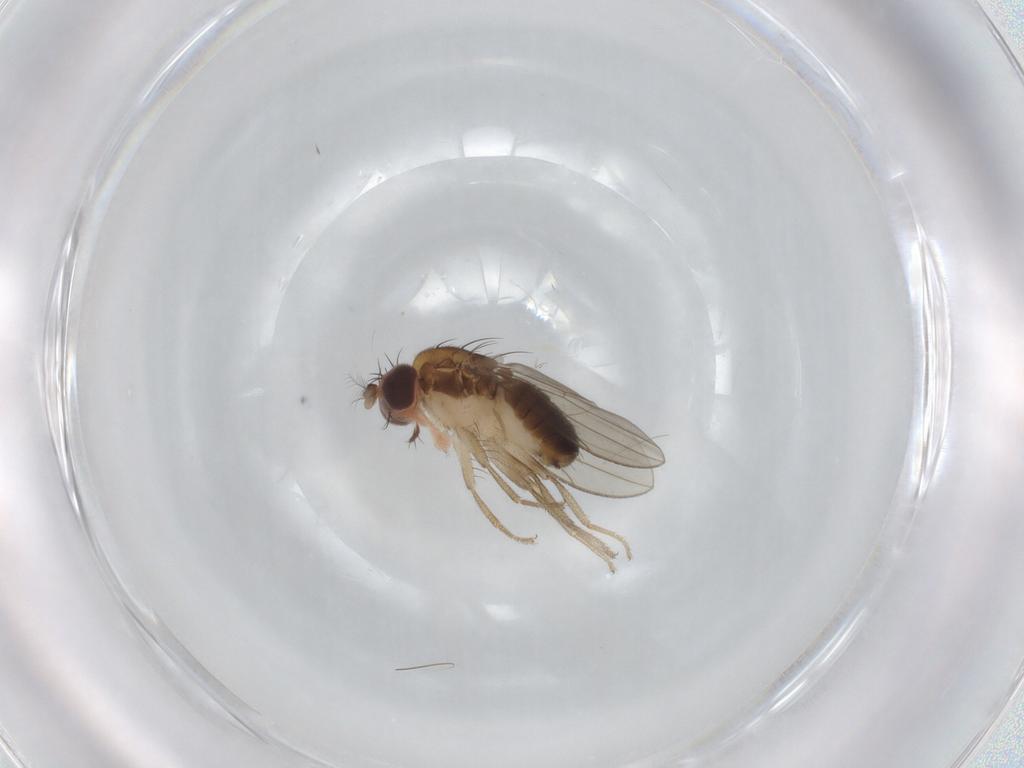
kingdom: Animalia
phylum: Arthropoda
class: Insecta
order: Diptera
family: Drosophilidae
